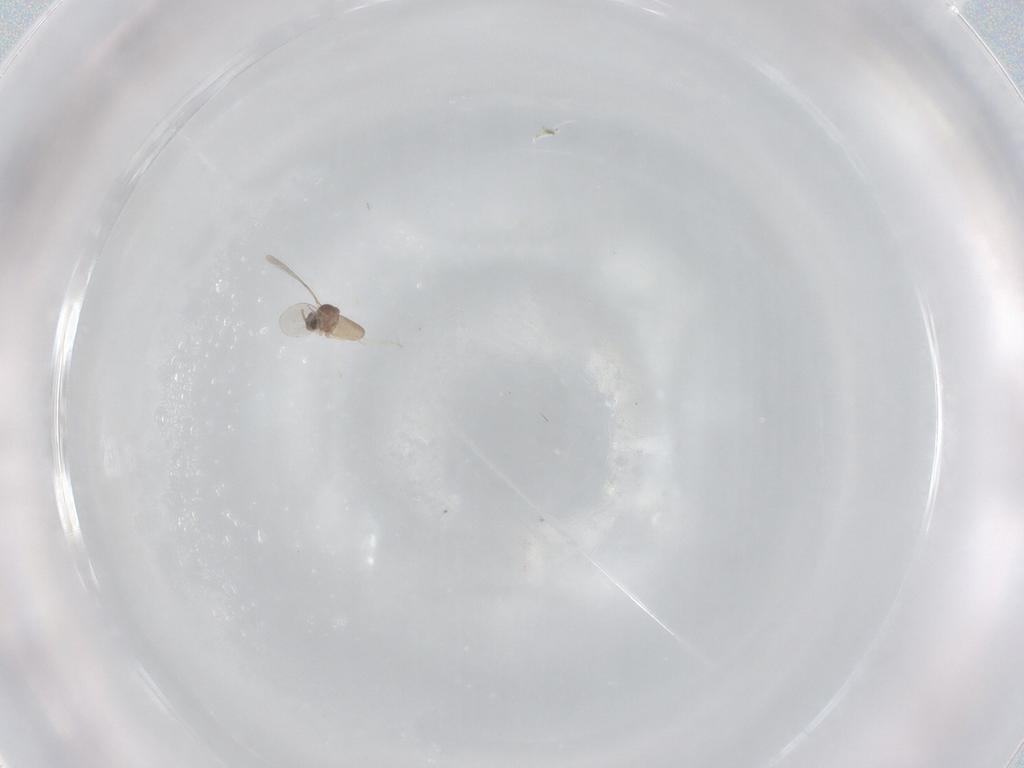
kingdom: Animalia
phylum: Arthropoda
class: Insecta
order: Diptera
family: Cecidomyiidae
